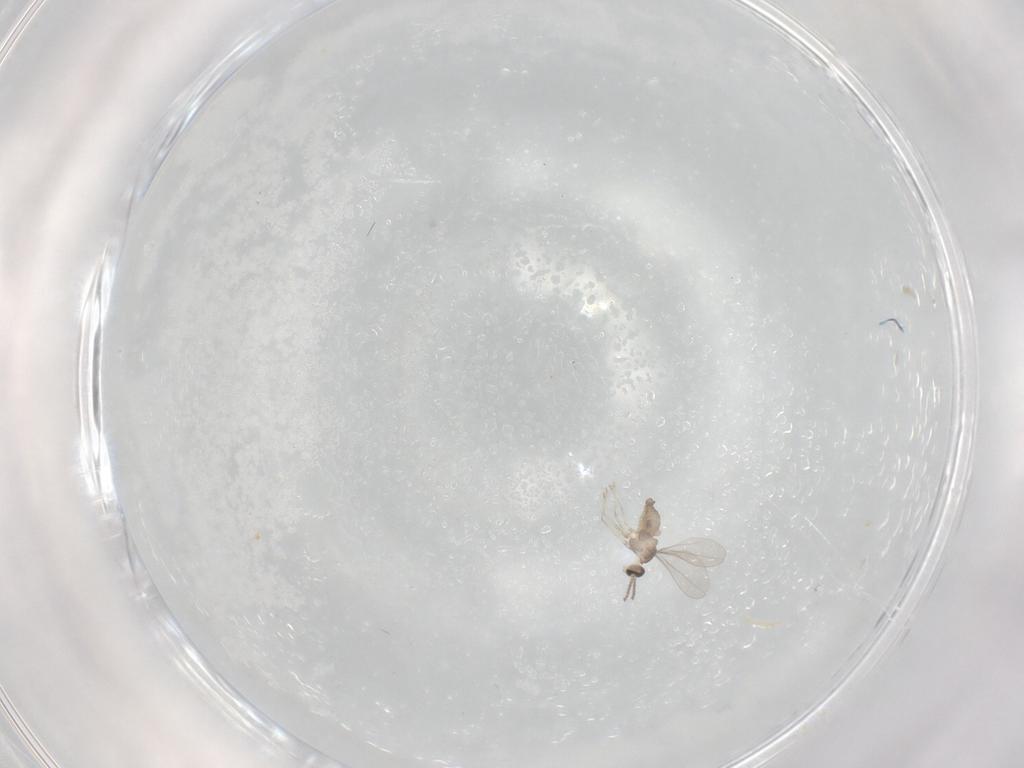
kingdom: Animalia
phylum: Arthropoda
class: Insecta
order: Diptera
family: Cecidomyiidae
